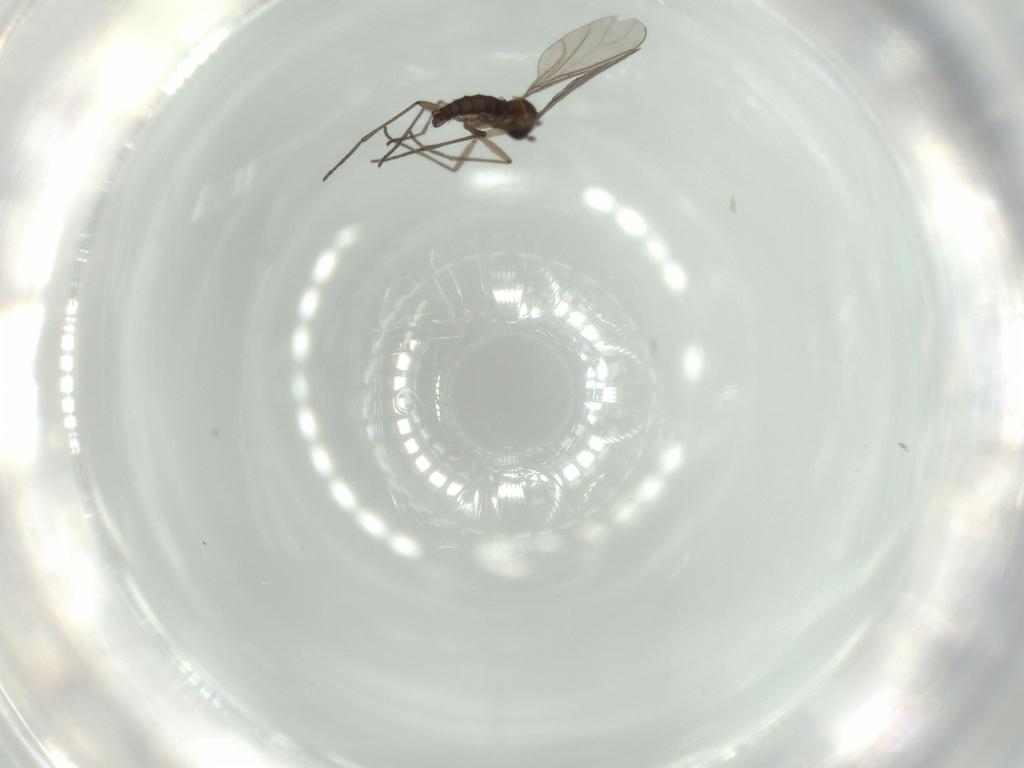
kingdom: Animalia
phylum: Arthropoda
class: Insecta
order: Diptera
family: Cecidomyiidae
